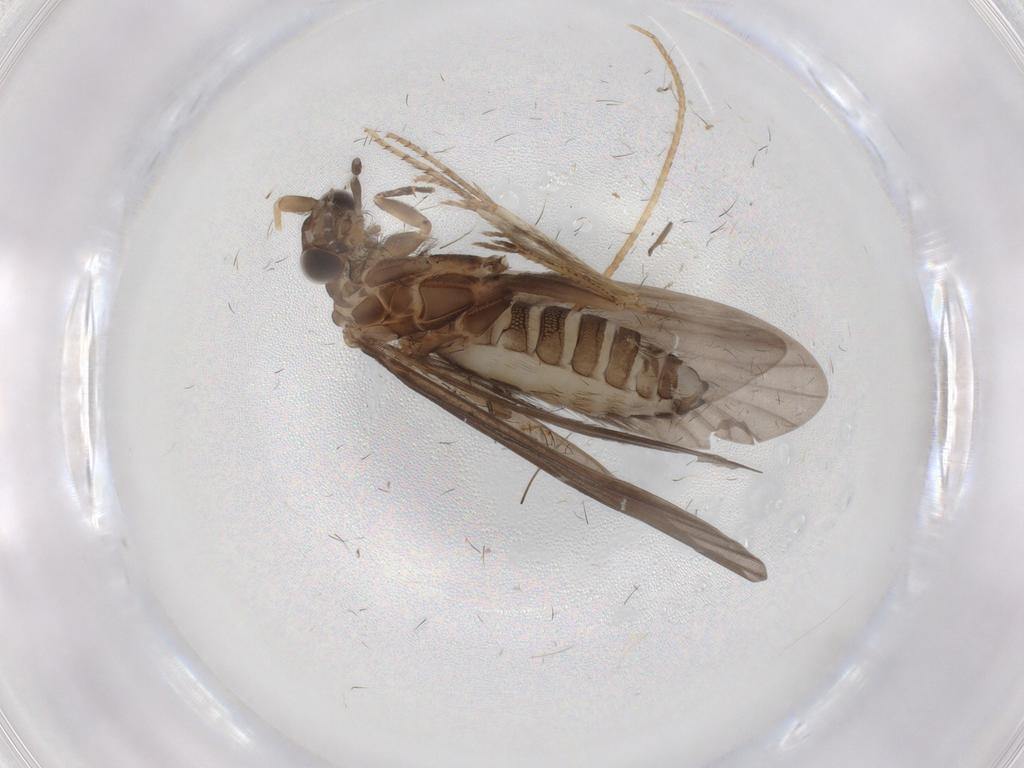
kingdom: Animalia
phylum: Arthropoda
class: Insecta
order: Trichoptera
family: Helicopsychidae
